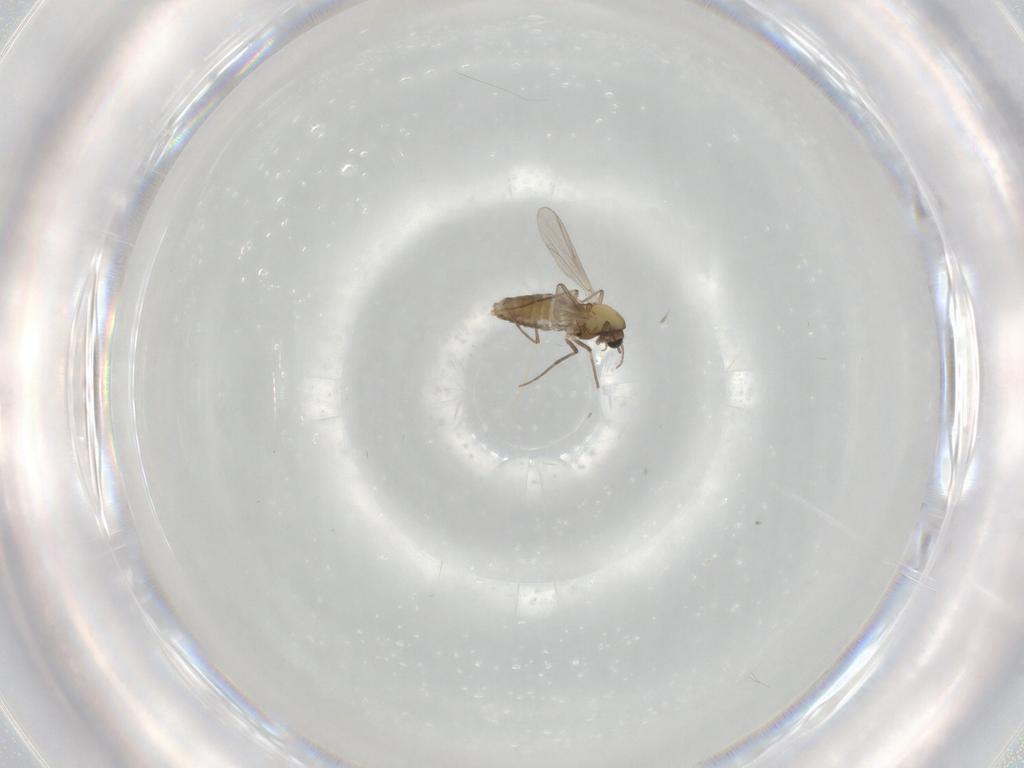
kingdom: Animalia
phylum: Arthropoda
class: Insecta
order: Diptera
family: Chironomidae
